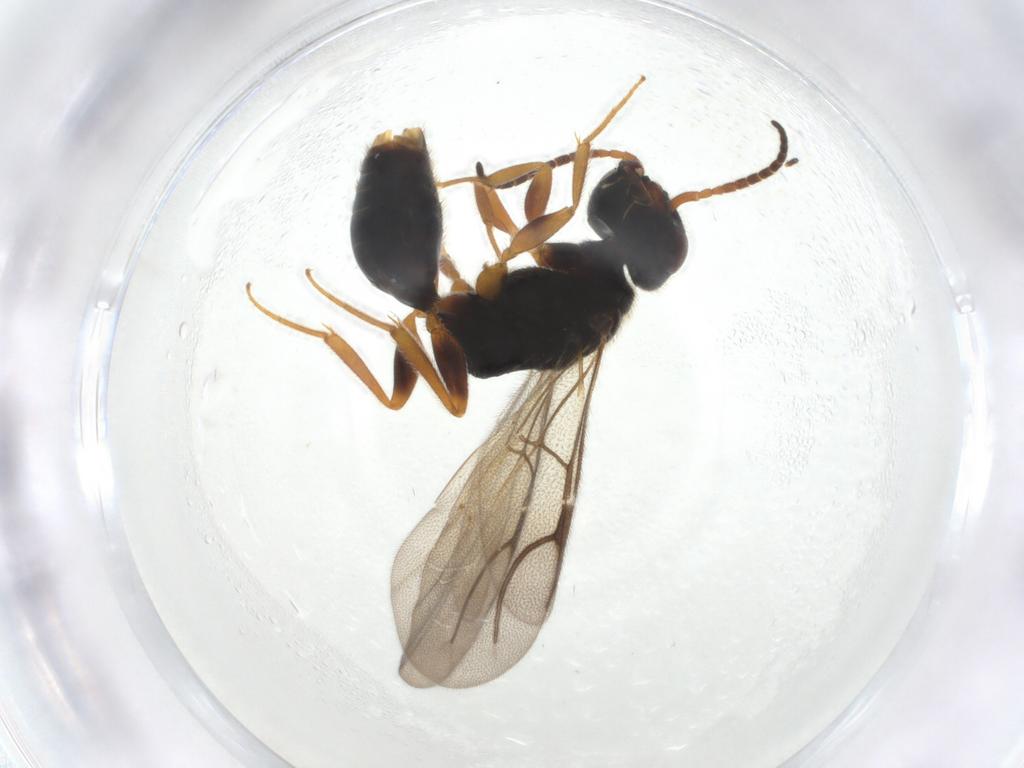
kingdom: Animalia
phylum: Arthropoda
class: Insecta
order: Hymenoptera
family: Bethylidae
